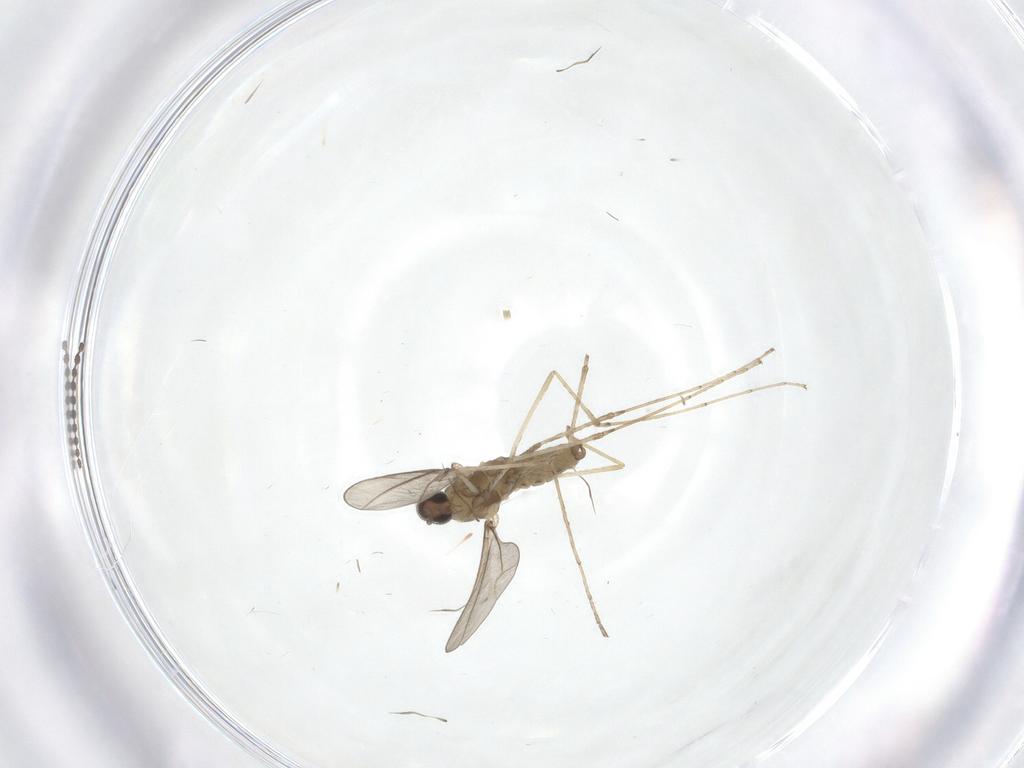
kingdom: Animalia
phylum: Arthropoda
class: Insecta
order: Diptera
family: Cecidomyiidae
